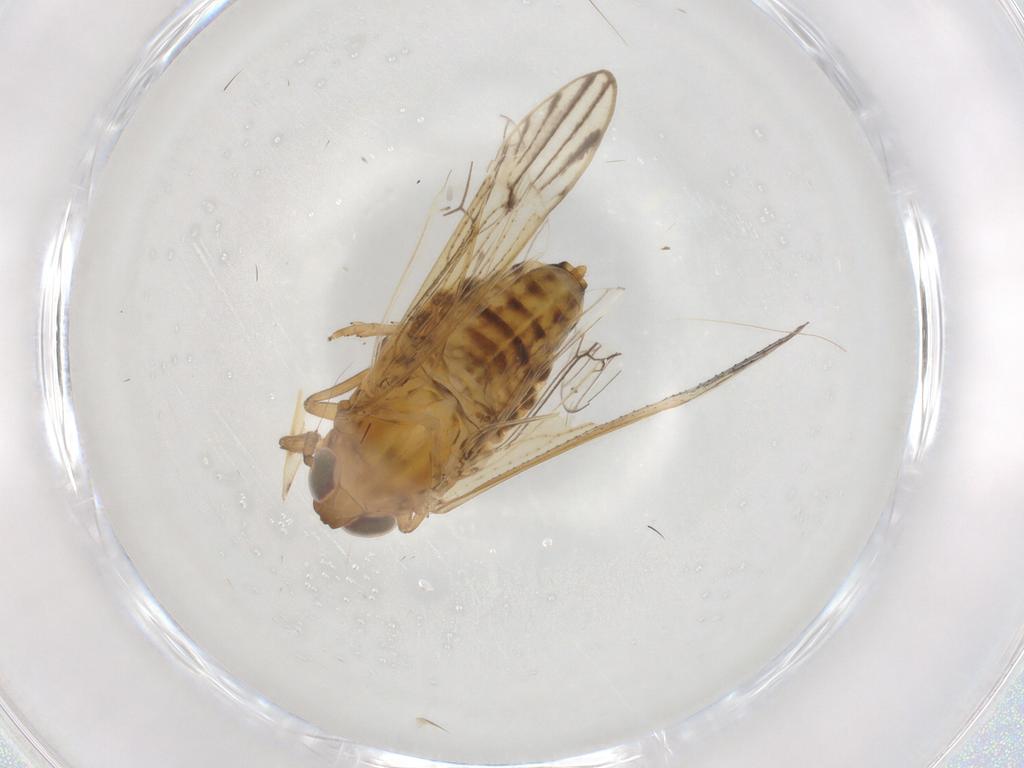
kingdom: Animalia
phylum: Arthropoda
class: Insecta
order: Hemiptera
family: Delphacidae
